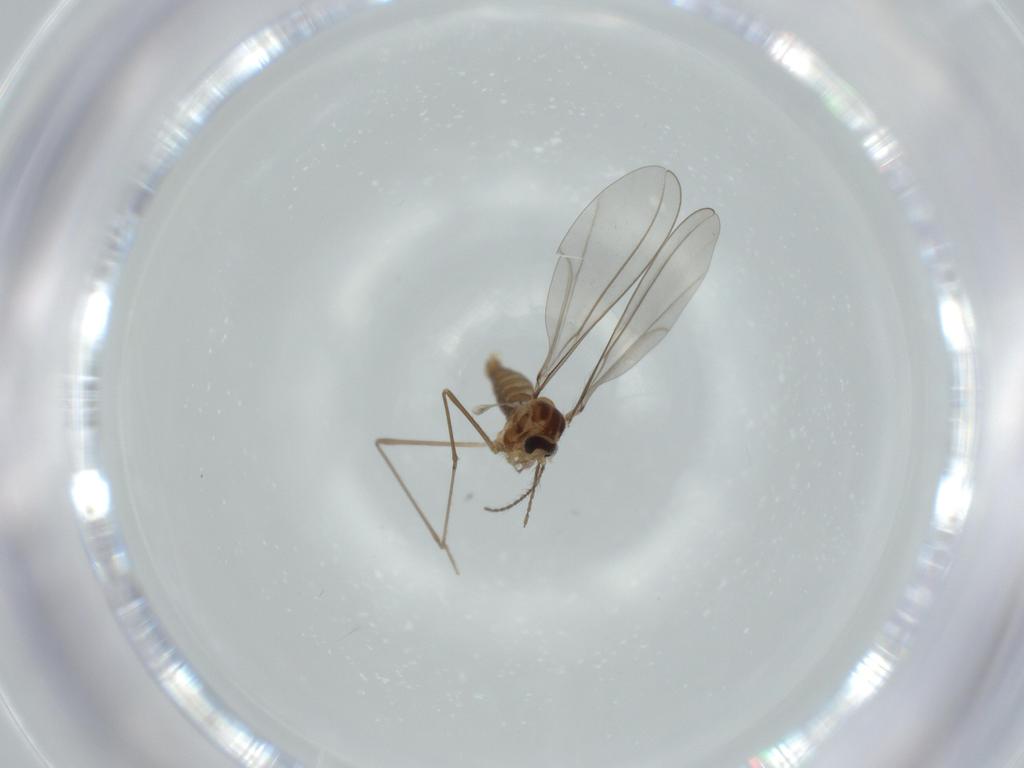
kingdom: Animalia
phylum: Arthropoda
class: Insecta
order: Diptera
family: Cecidomyiidae
